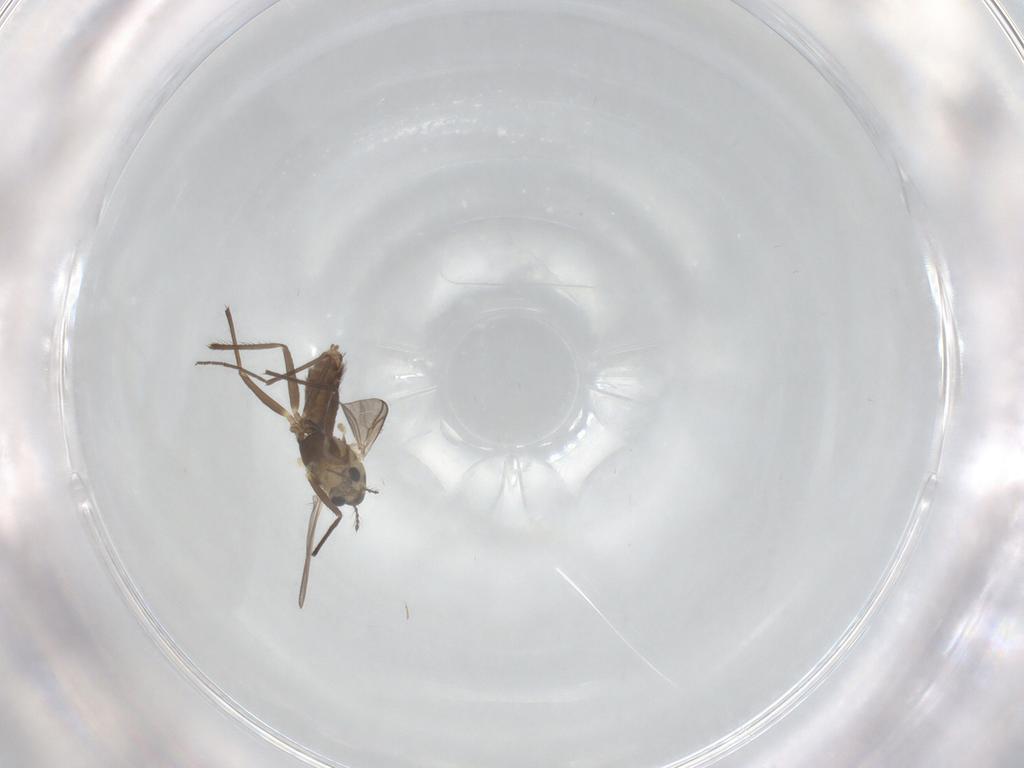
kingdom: Animalia
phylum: Arthropoda
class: Insecta
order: Diptera
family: Chironomidae
